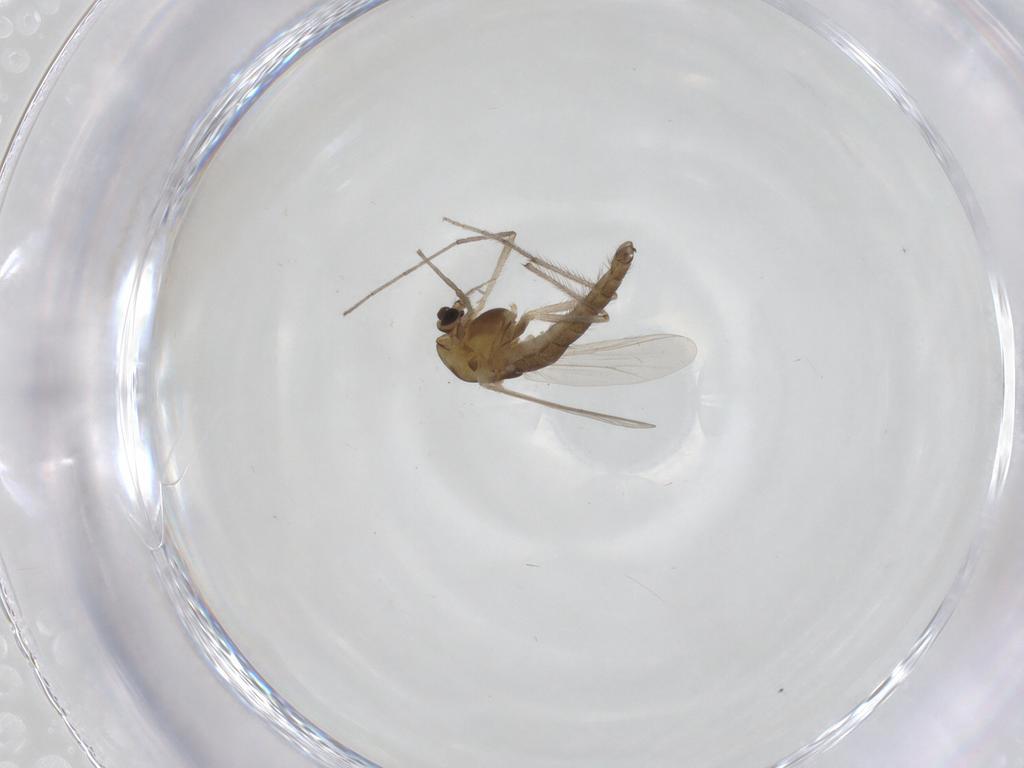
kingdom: Animalia
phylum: Arthropoda
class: Insecta
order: Diptera
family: Chironomidae
